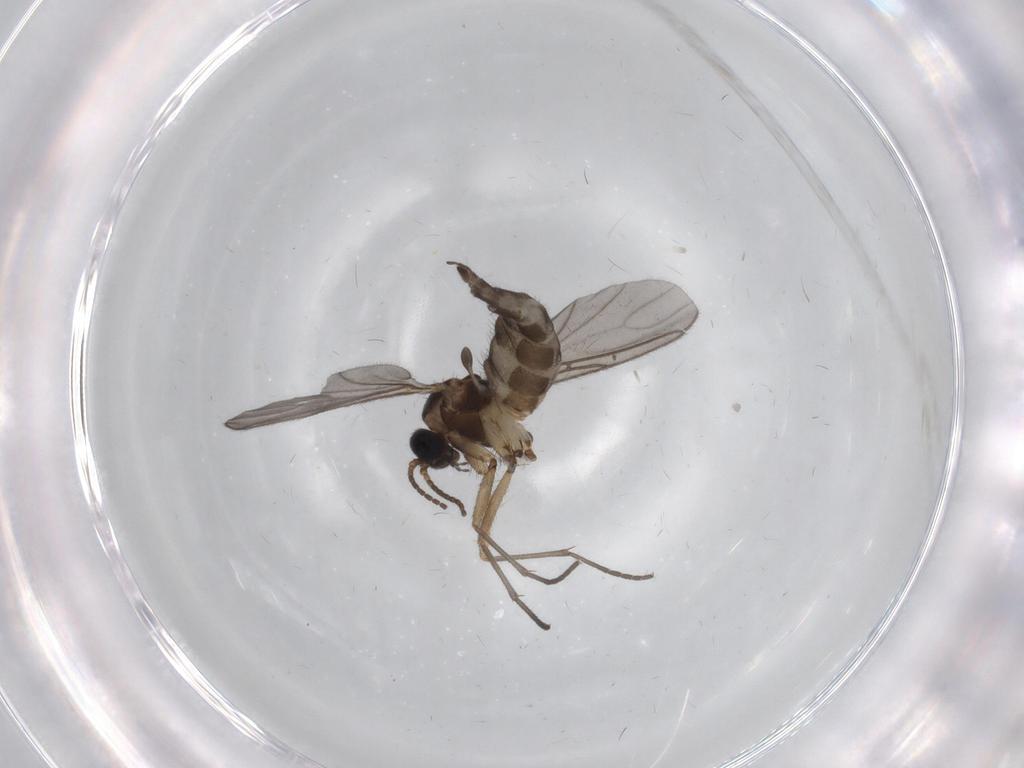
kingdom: Animalia
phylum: Arthropoda
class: Insecta
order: Diptera
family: Sciaridae
